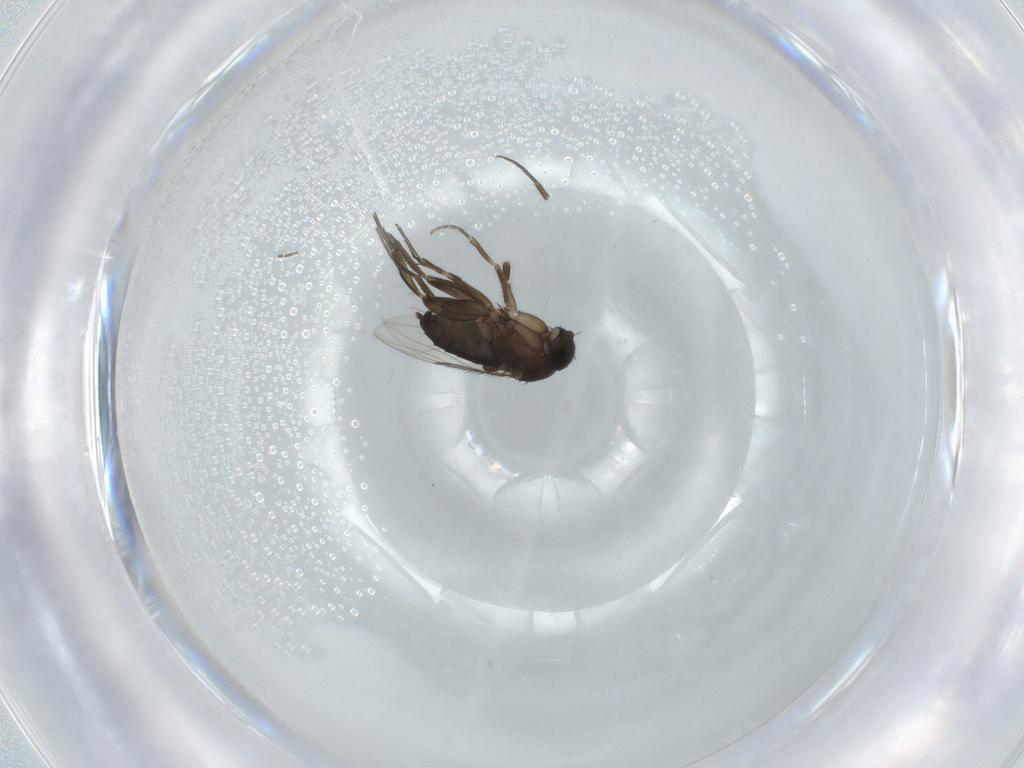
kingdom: Animalia
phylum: Arthropoda
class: Insecta
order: Diptera
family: Phoridae
